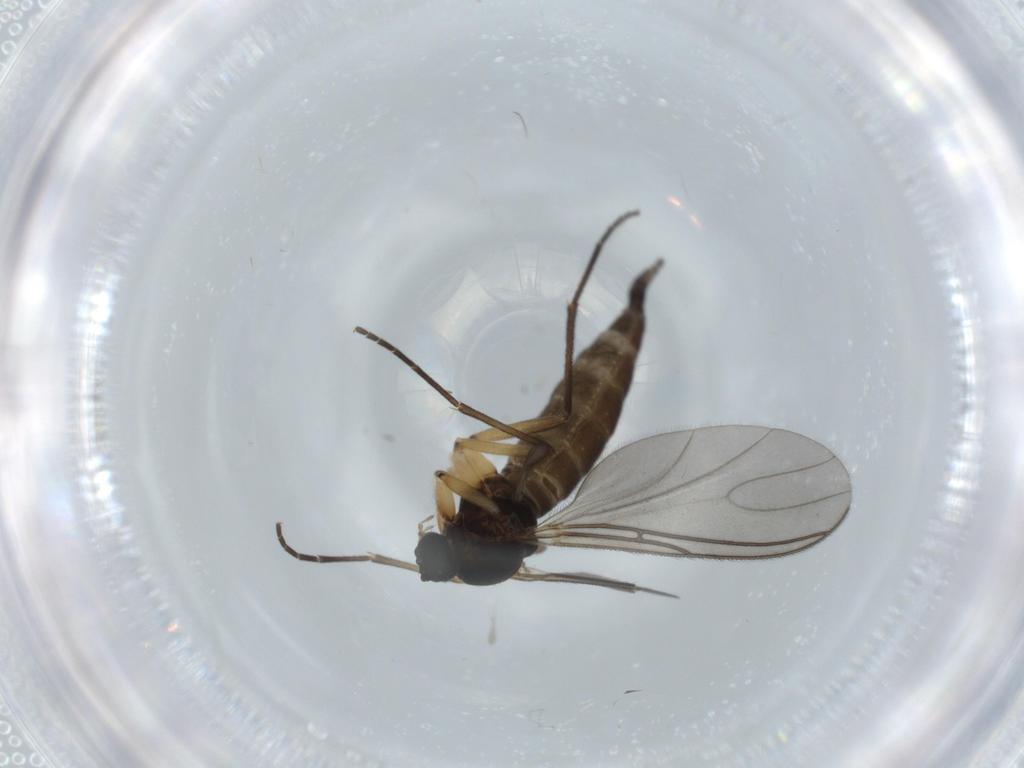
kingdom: Animalia
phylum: Arthropoda
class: Insecta
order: Diptera
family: Sciaridae
